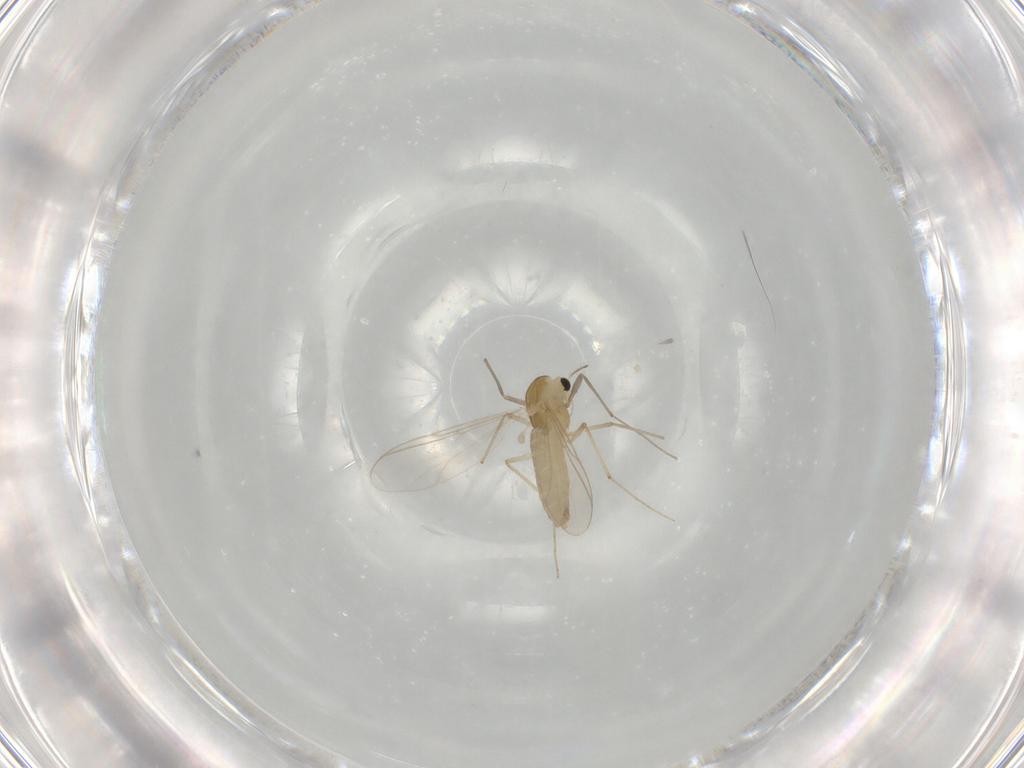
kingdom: Animalia
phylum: Arthropoda
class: Insecta
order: Diptera
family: Chironomidae
